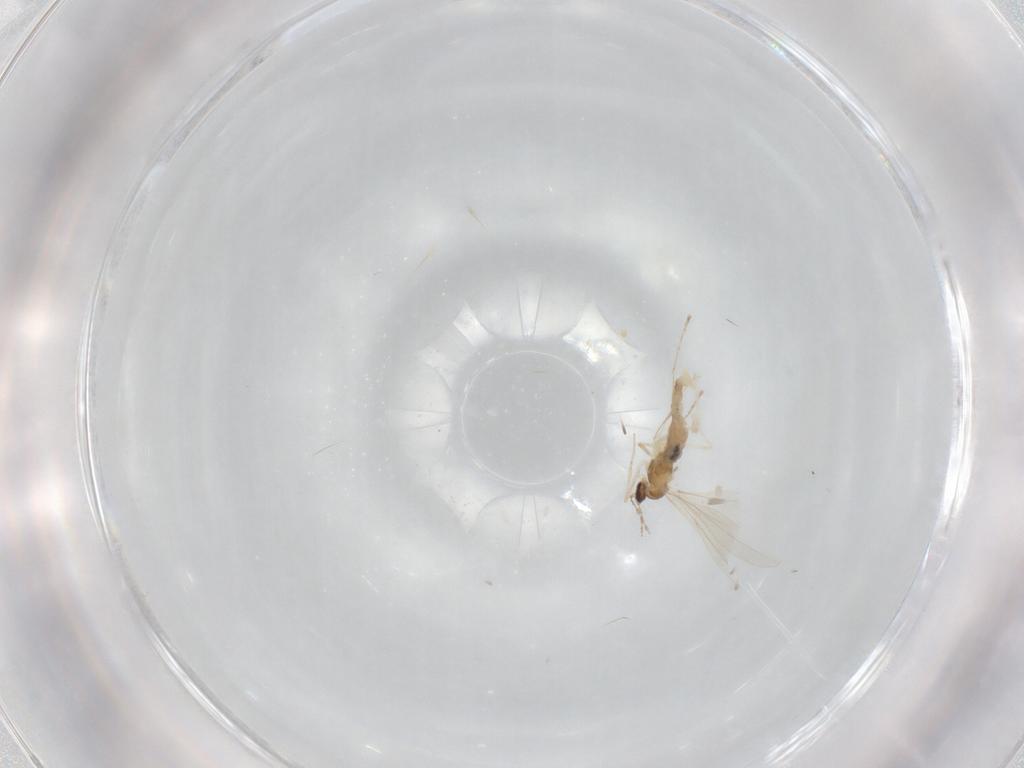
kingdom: Animalia
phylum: Arthropoda
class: Insecta
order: Diptera
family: Cecidomyiidae
